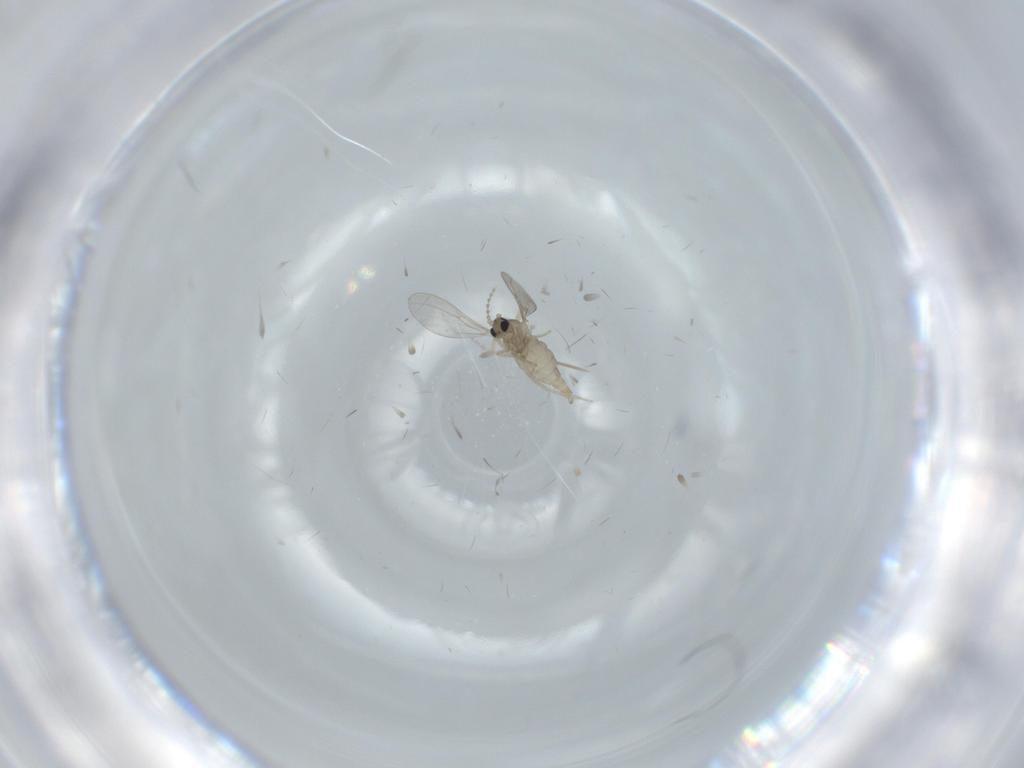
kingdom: Animalia
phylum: Arthropoda
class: Insecta
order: Diptera
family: Cecidomyiidae
